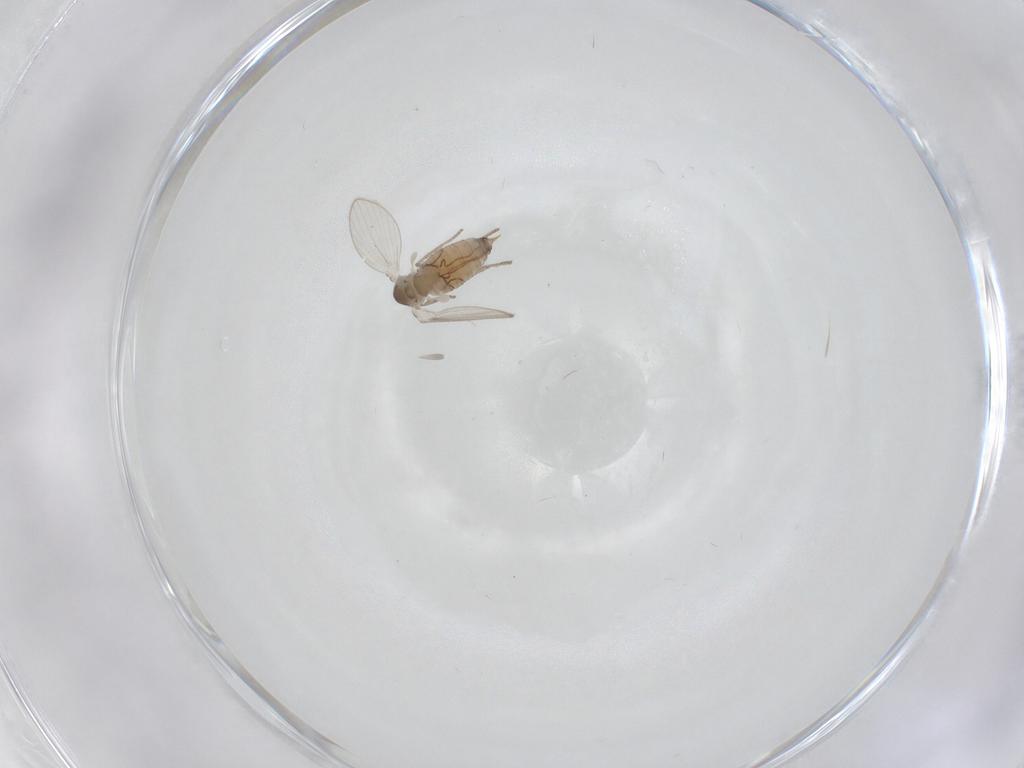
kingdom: Animalia
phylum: Arthropoda
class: Insecta
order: Diptera
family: Psychodidae
